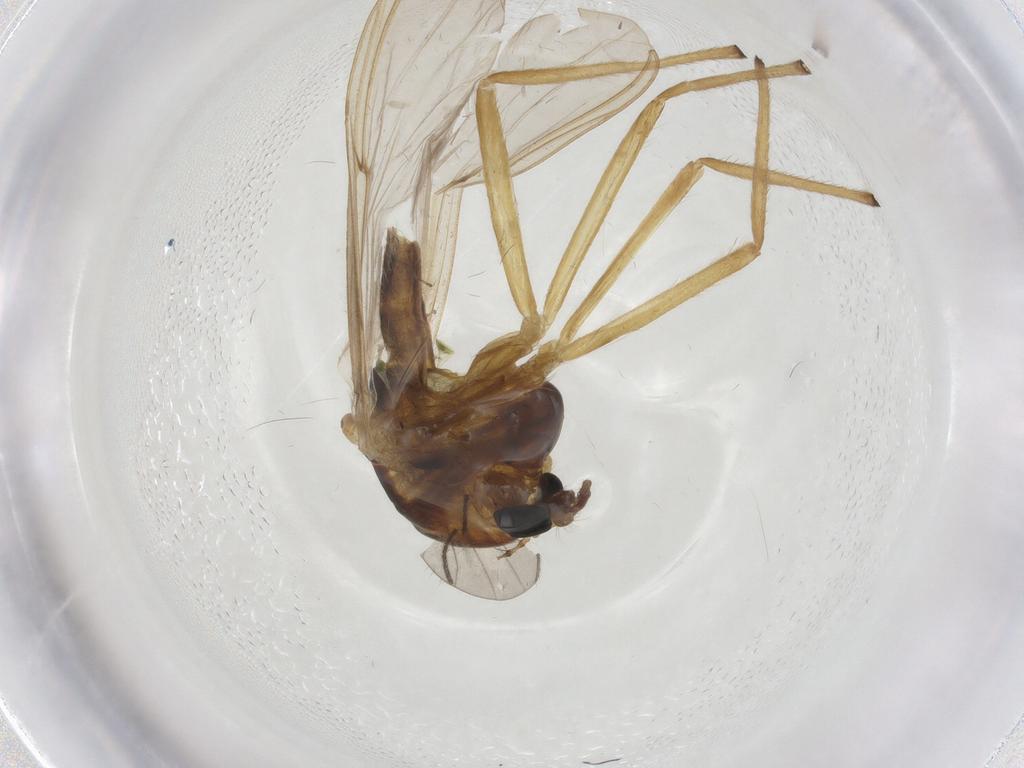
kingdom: Animalia
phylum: Arthropoda
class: Insecta
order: Diptera
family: Chironomidae
